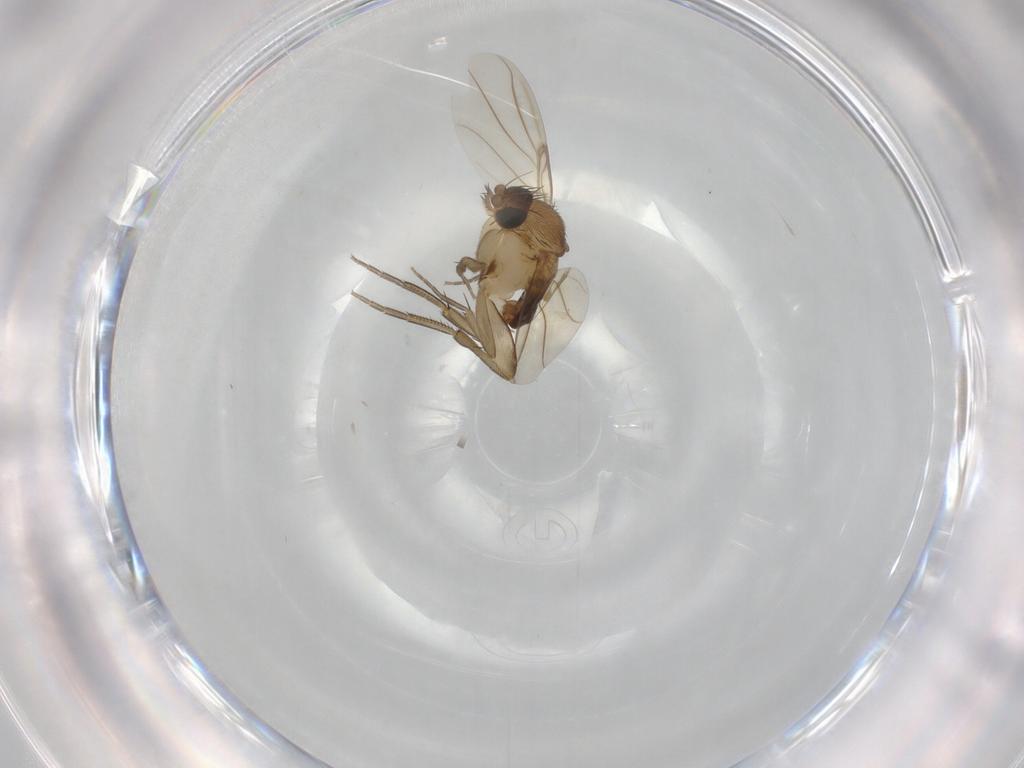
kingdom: Animalia
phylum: Arthropoda
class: Insecta
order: Diptera
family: Phoridae
